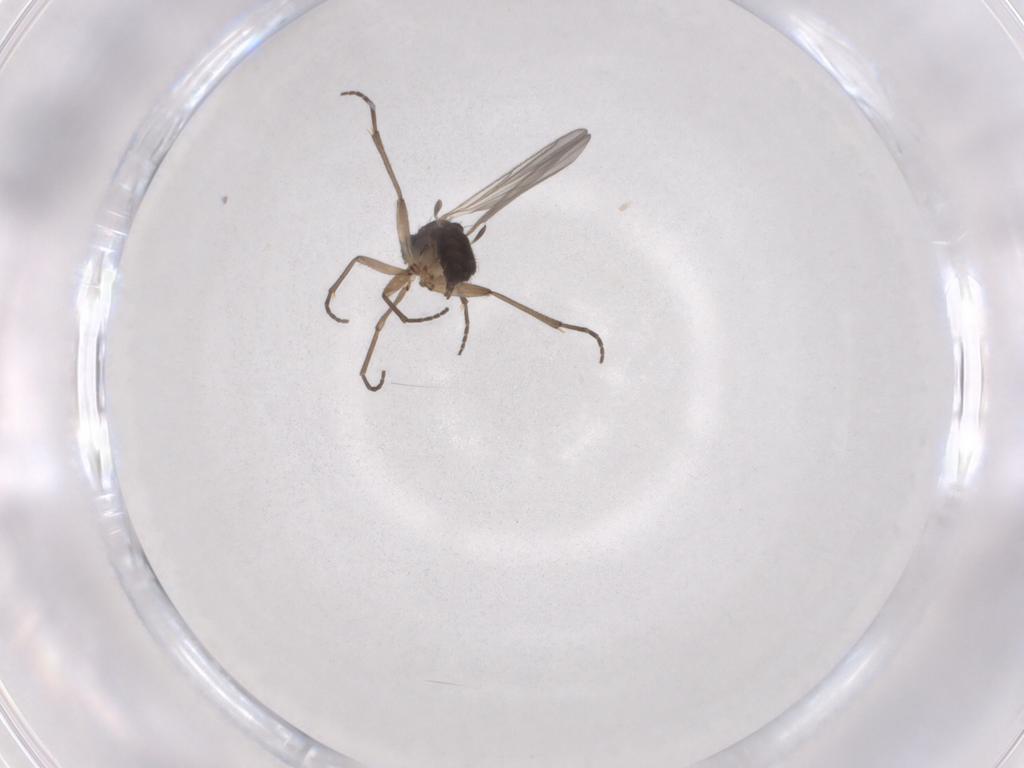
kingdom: Animalia
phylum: Arthropoda
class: Insecta
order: Diptera
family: Sciaridae
